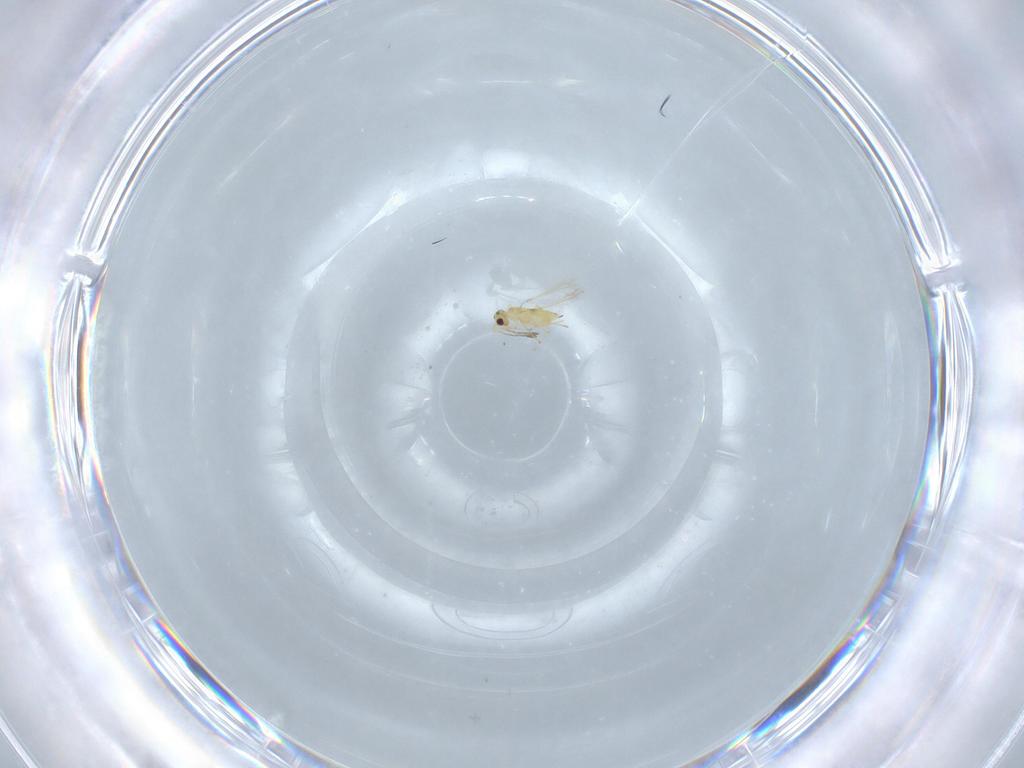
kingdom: Animalia
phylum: Arthropoda
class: Insecta
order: Hymenoptera
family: Mymaridae
